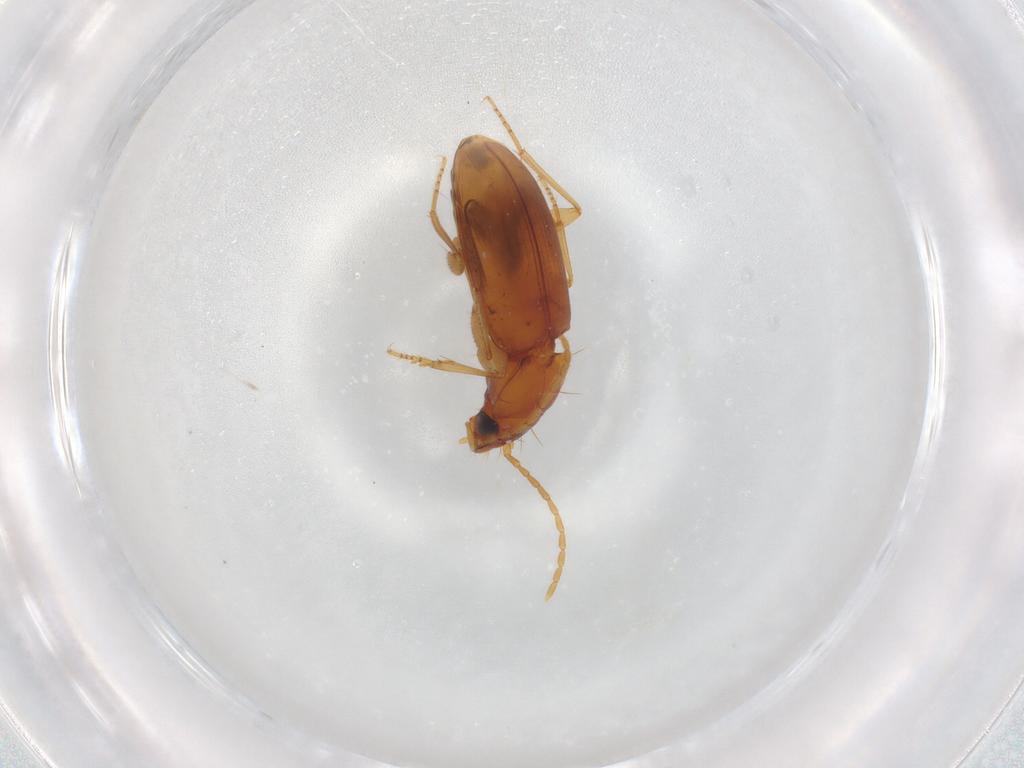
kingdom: Animalia
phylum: Arthropoda
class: Insecta
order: Coleoptera
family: Carabidae
